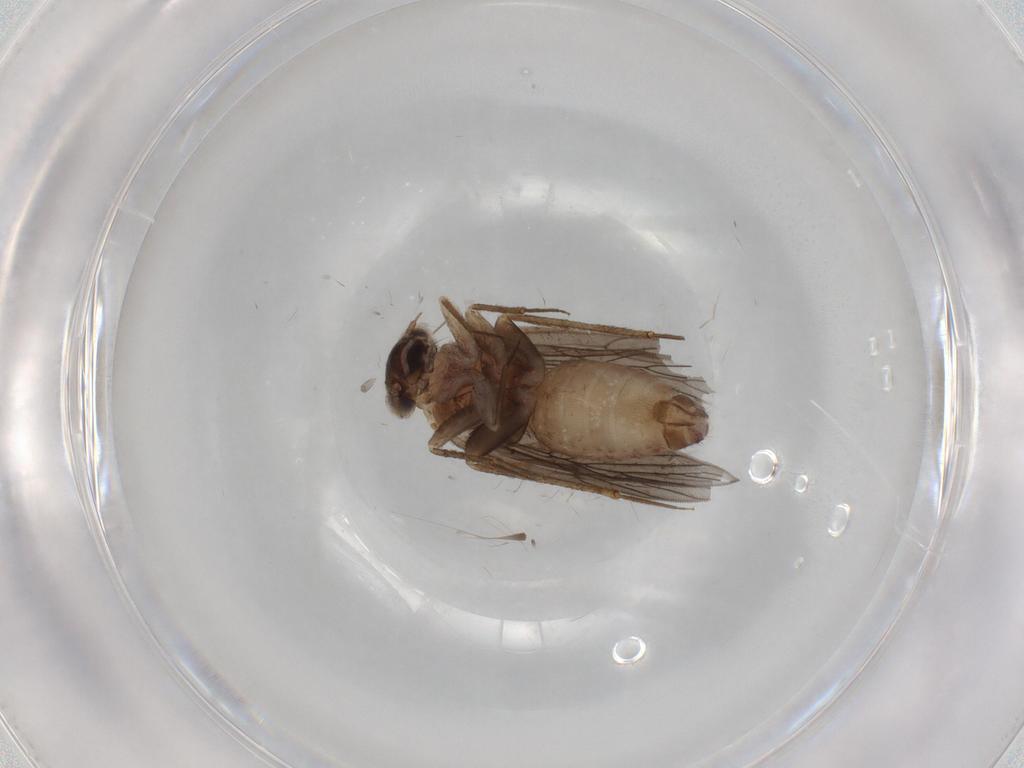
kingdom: Animalia
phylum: Arthropoda
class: Insecta
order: Psocodea
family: Lepidopsocidae
